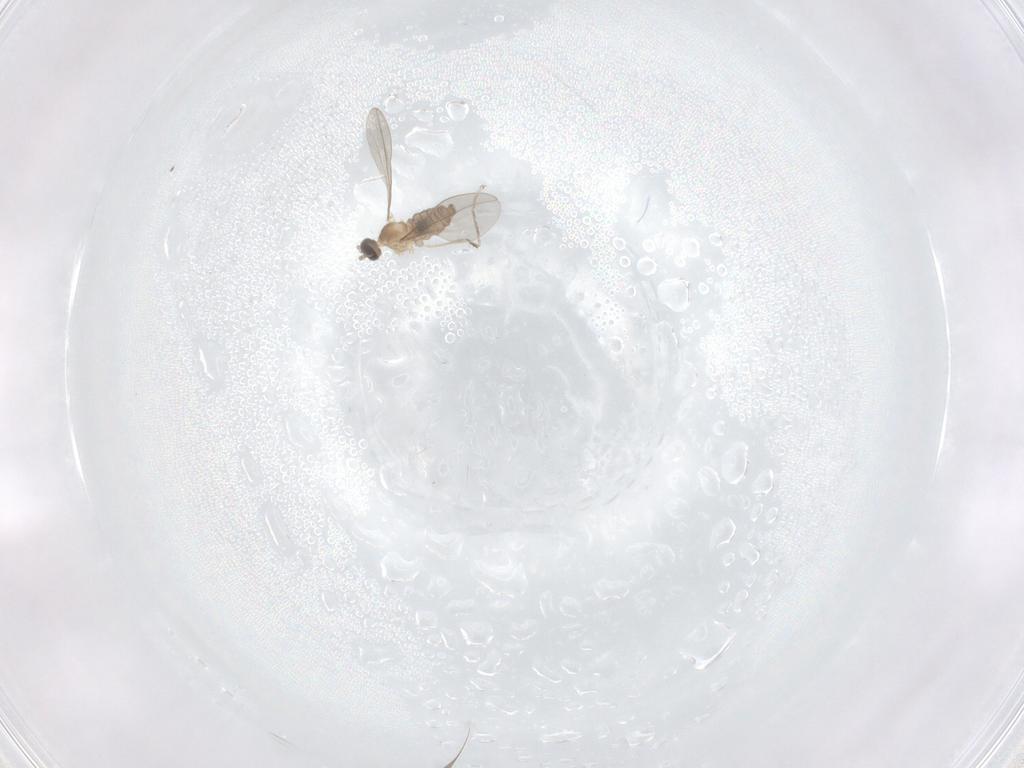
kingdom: Animalia
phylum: Arthropoda
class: Insecta
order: Diptera
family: Cecidomyiidae
